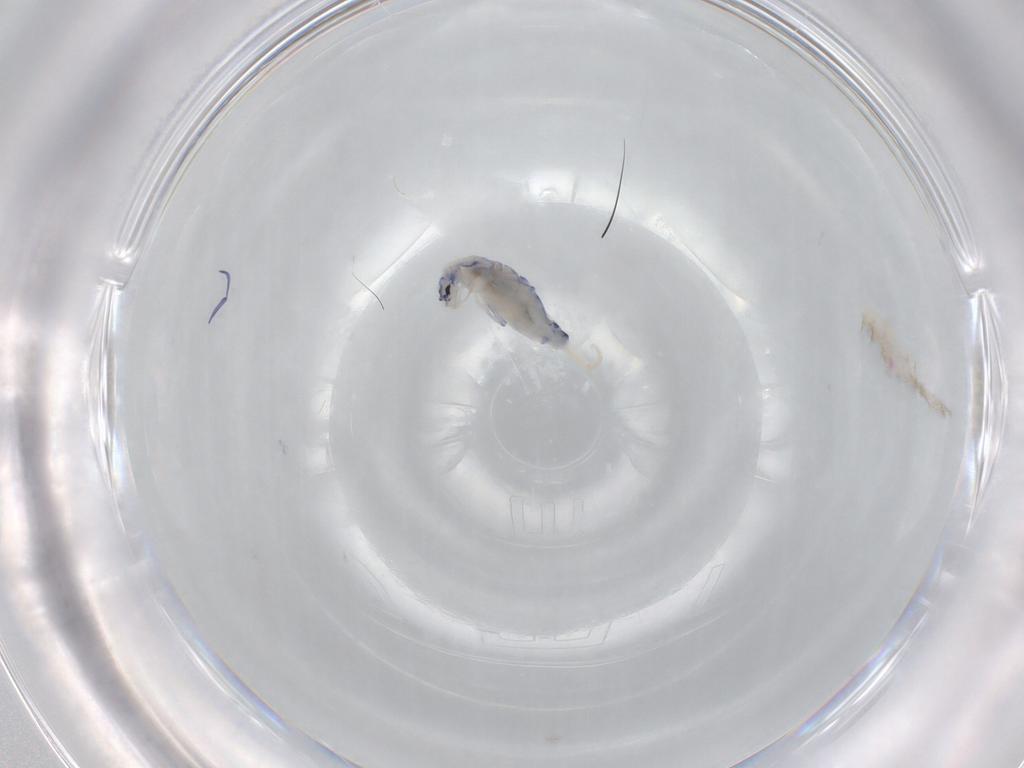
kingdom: Animalia
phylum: Arthropoda
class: Collembola
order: Entomobryomorpha
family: Entomobryidae
